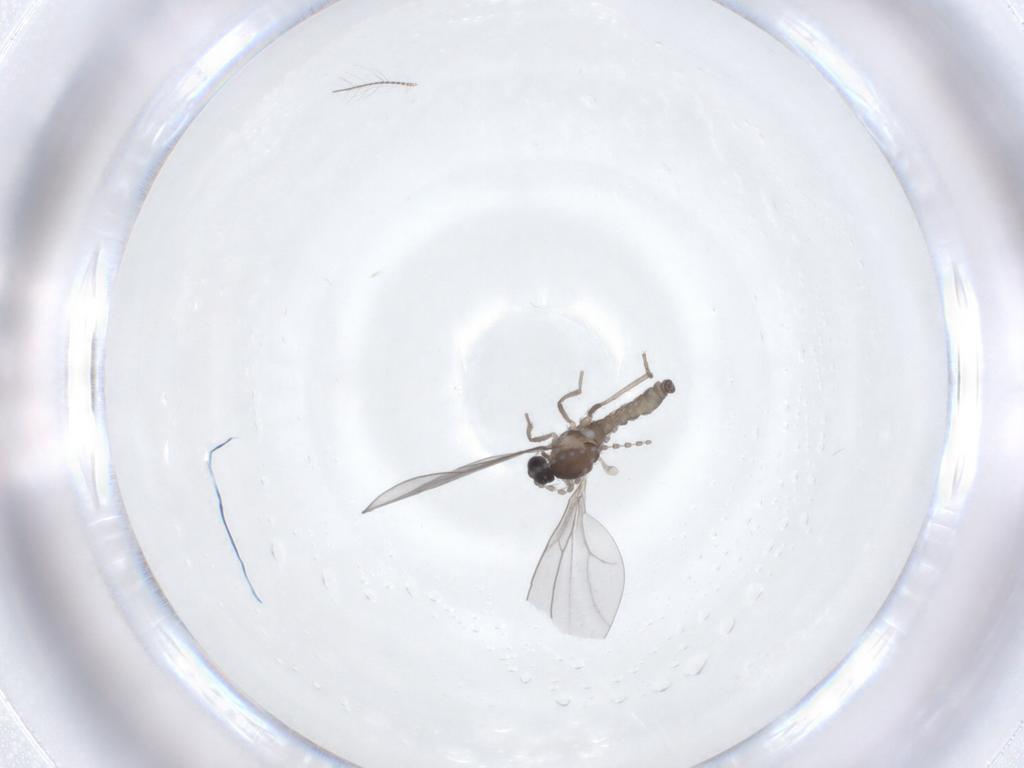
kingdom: Animalia
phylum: Arthropoda
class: Insecta
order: Diptera
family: Cecidomyiidae
